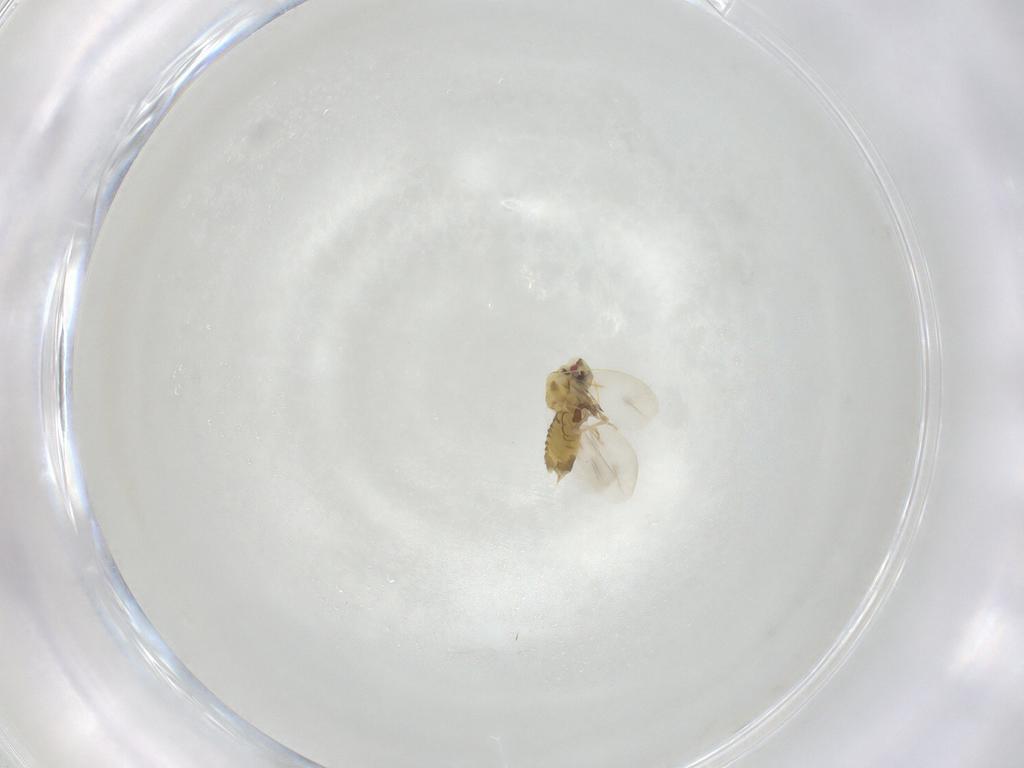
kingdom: Animalia
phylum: Arthropoda
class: Insecta
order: Hemiptera
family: Aleyrodidae
